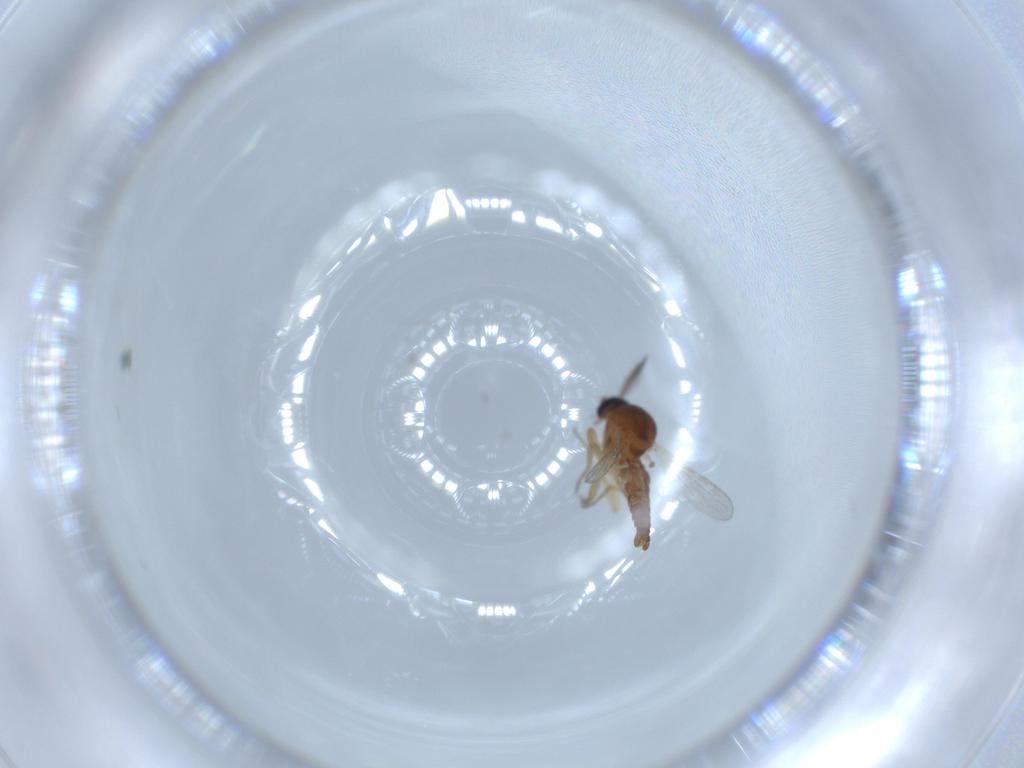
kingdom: Animalia
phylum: Arthropoda
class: Insecta
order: Diptera
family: Ceratopogonidae
